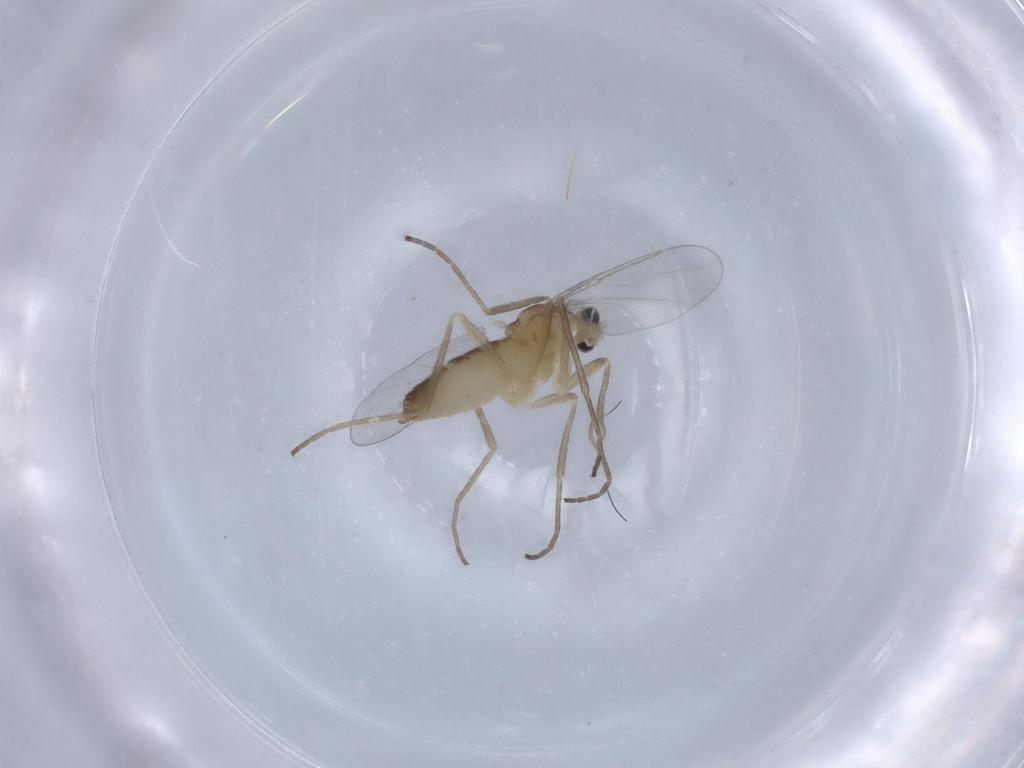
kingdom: Animalia
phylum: Arthropoda
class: Insecta
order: Diptera
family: Cecidomyiidae
